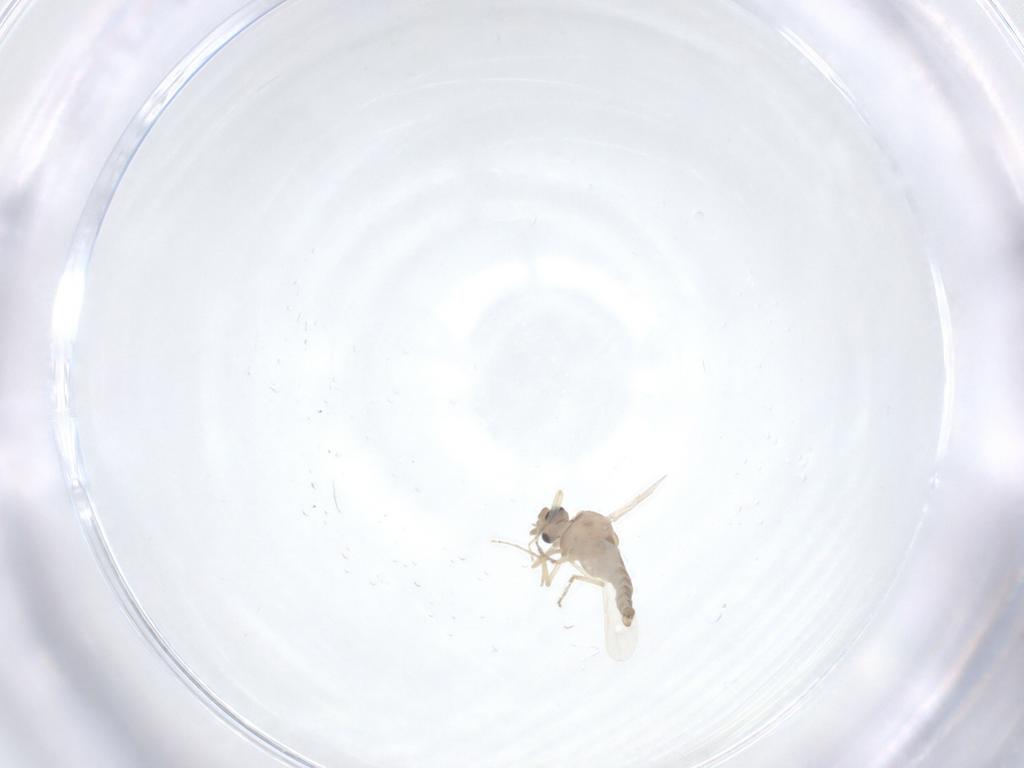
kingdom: Animalia
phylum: Arthropoda
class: Insecta
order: Diptera
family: Ceratopogonidae
